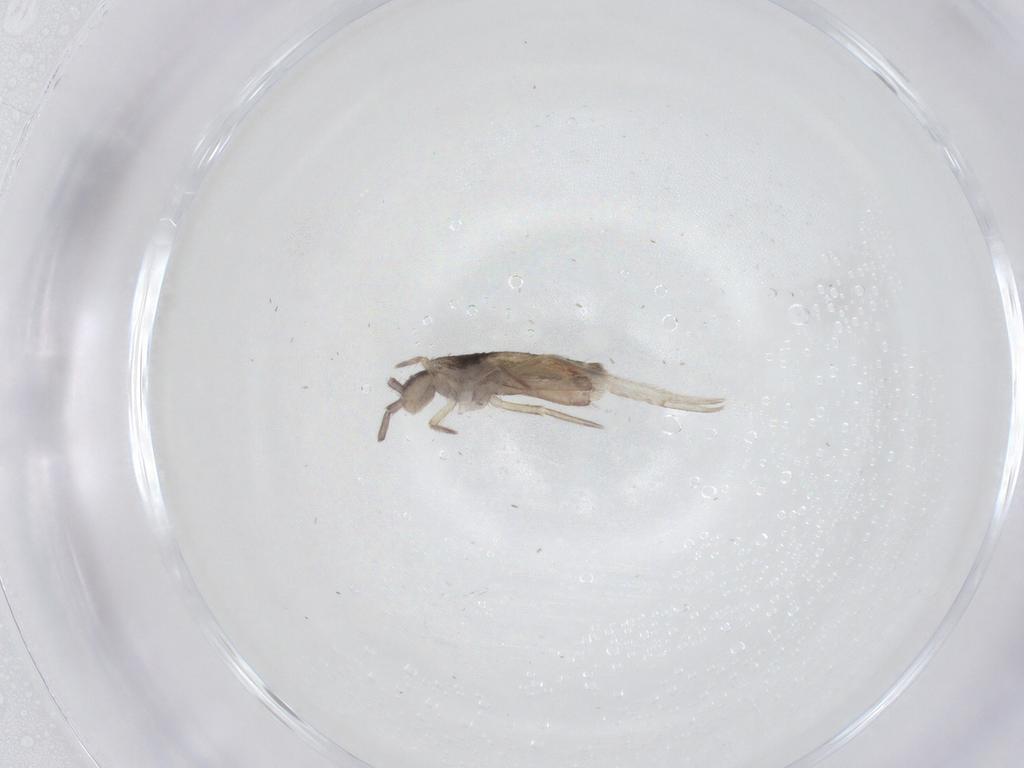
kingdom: Animalia
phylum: Arthropoda
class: Collembola
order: Entomobryomorpha
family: Entomobryidae
